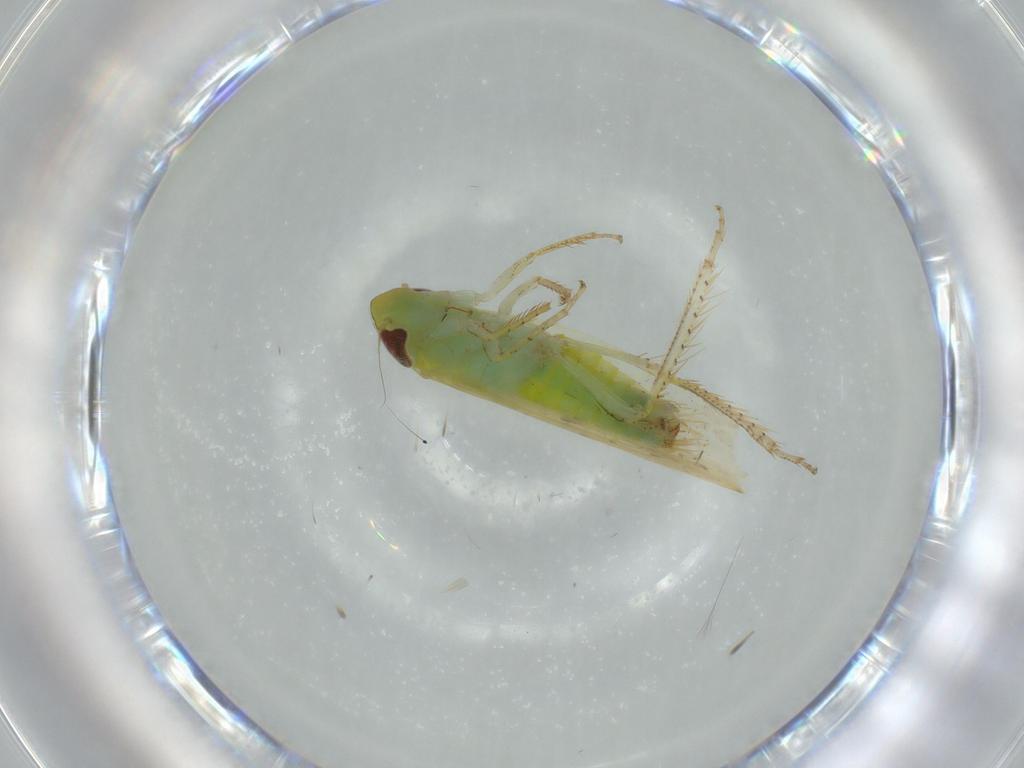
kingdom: Animalia
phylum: Arthropoda
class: Insecta
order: Hemiptera
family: Cicadellidae
